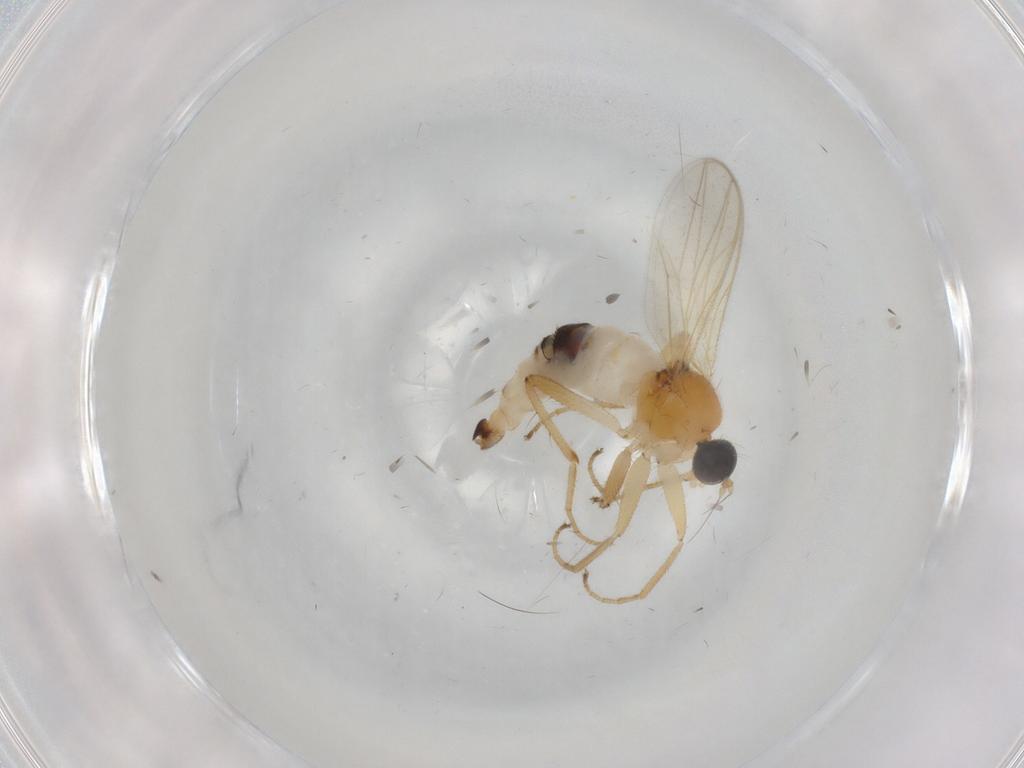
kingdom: Animalia
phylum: Arthropoda
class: Insecta
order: Diptera
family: Hybotidae
